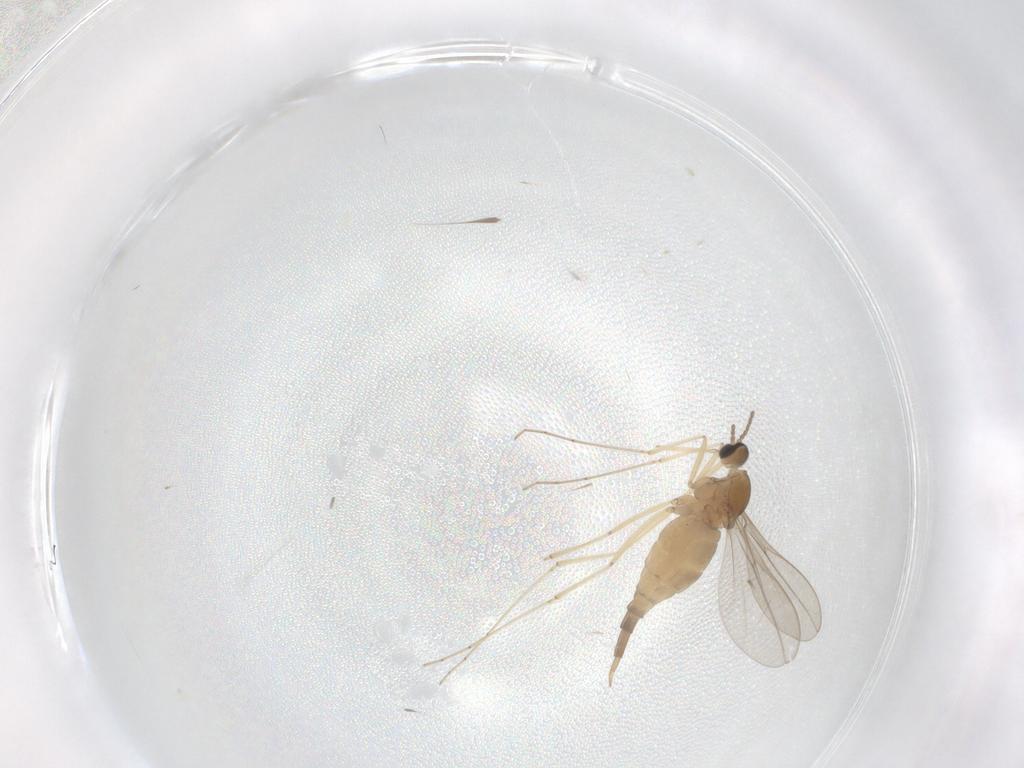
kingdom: Animalia
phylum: Arthropoda
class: Insecta
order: Diptera
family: Cecidomyiidae
